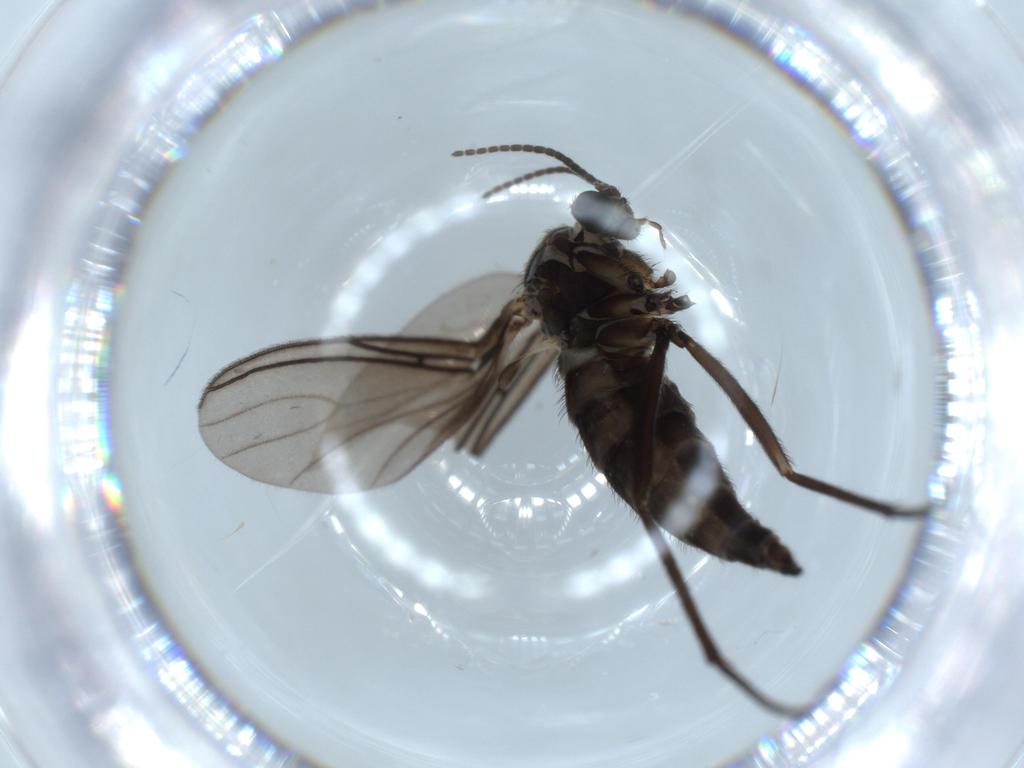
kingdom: Animalia
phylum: Arthropoda
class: Insecta
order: Diptera
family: Sciaridae
